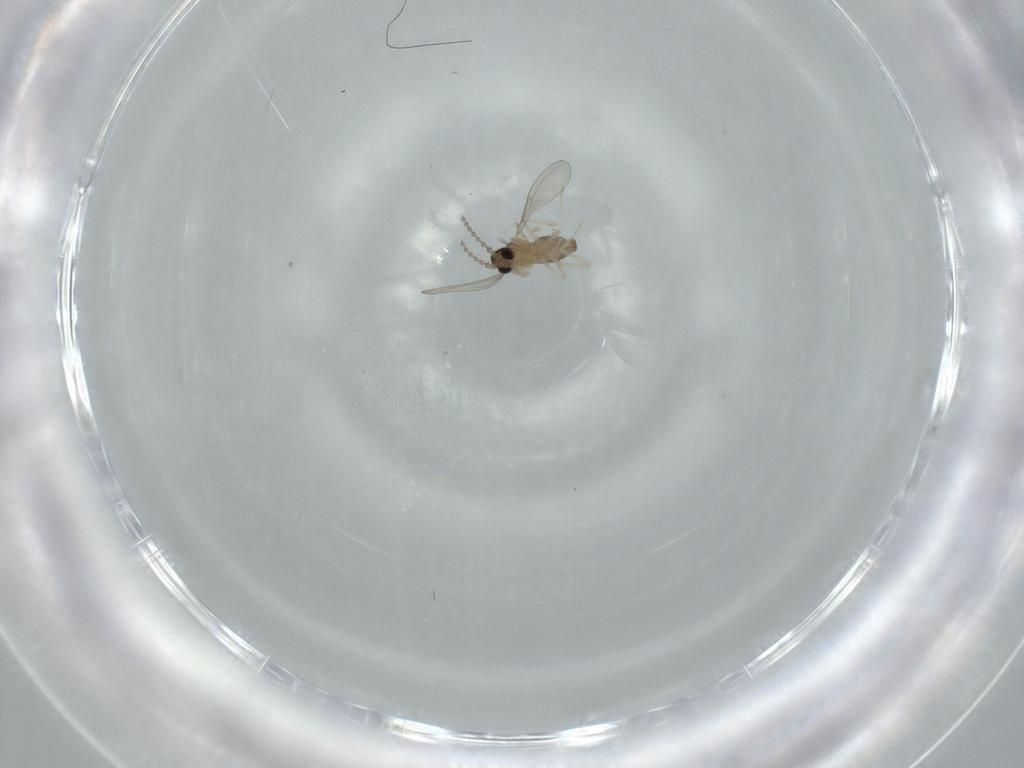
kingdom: Animalia
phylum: Arthropoda
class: Insecta
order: Diptera
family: Cecidomyiidae
